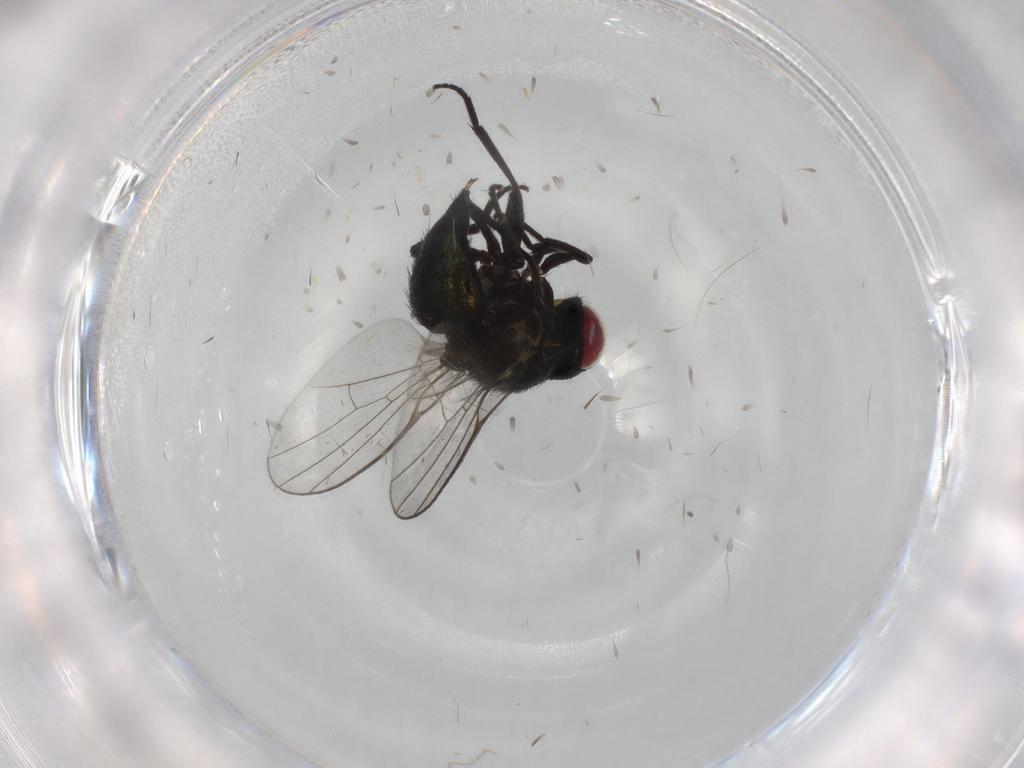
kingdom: Animalia
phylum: Arthropoda
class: Insecta
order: Diptera
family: Agromyzidae
